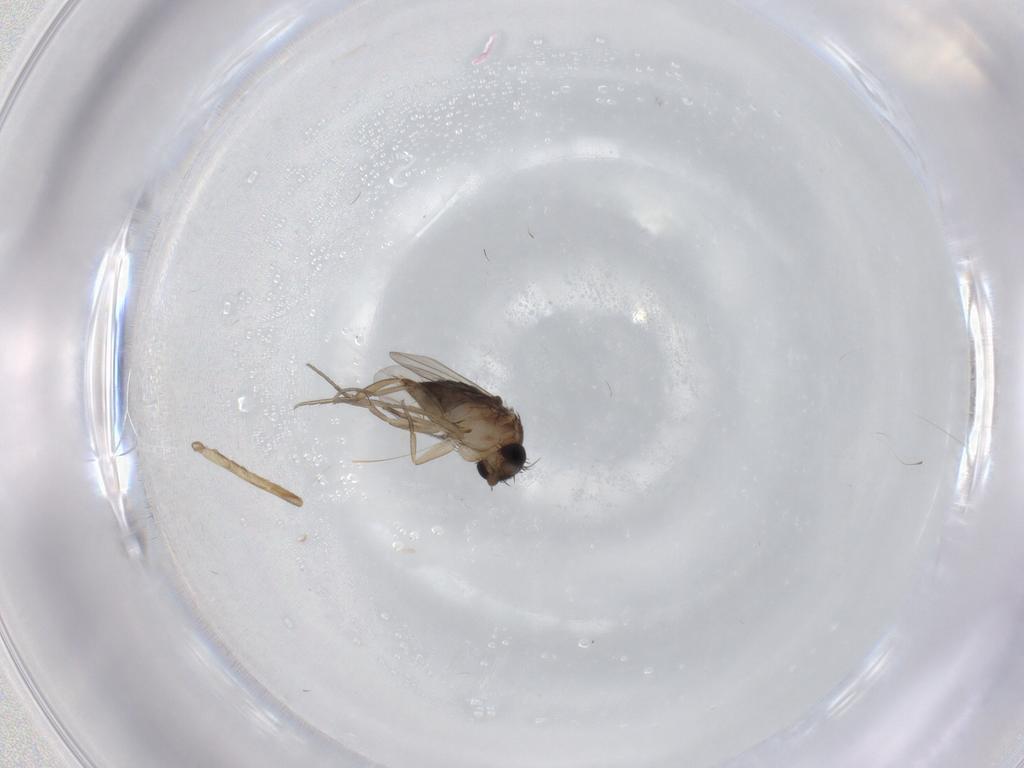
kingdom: Animalia
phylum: Arthropoda
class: Insecta
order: Diptera
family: Phoridae
